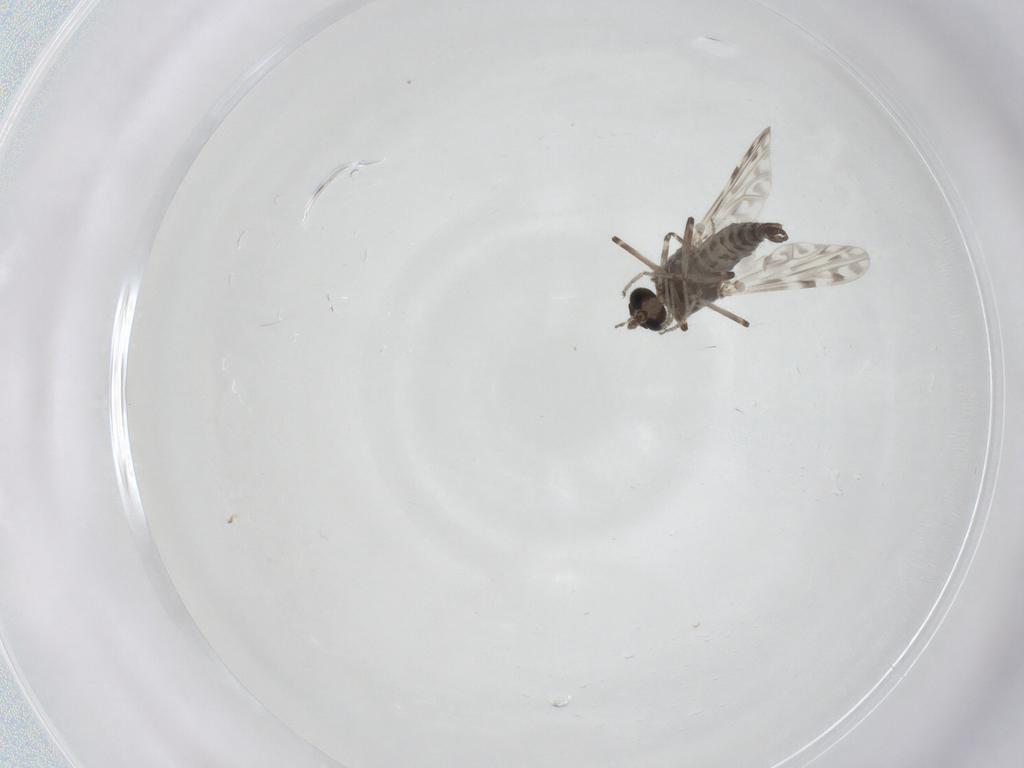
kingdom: Animalia
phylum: Arthropoda
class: Insecta
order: Diptera
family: Ceratopogonidae
